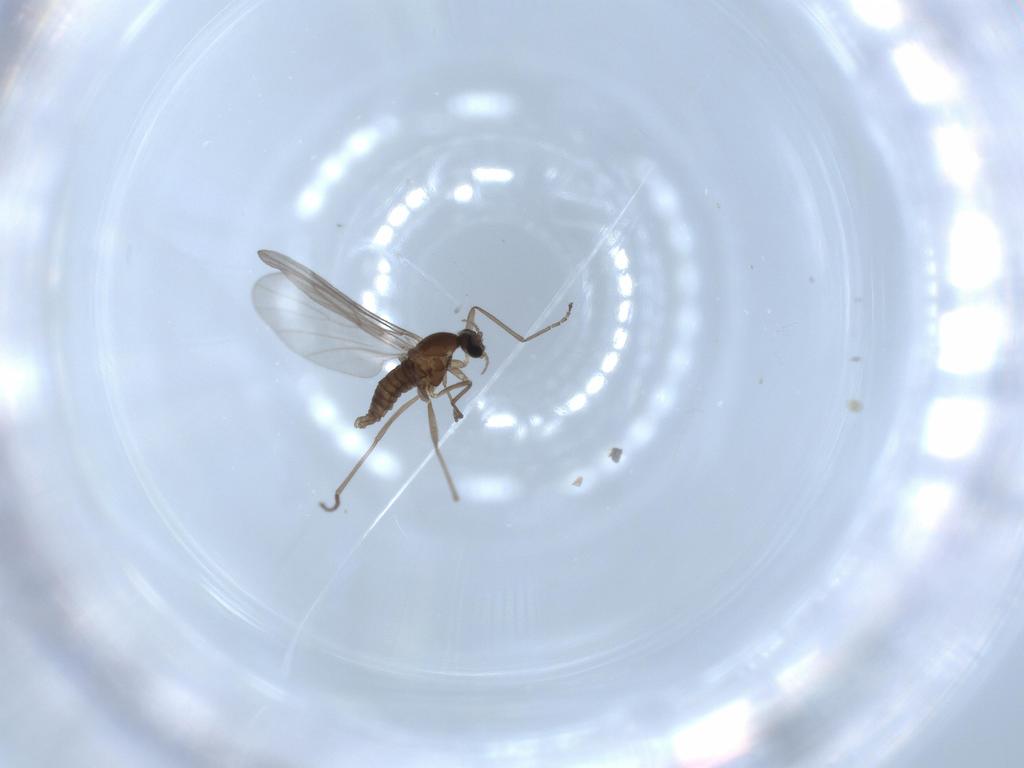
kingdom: Animalia
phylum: Arthropoda
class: Insecta
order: Diptera
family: Cecidomyiidae
